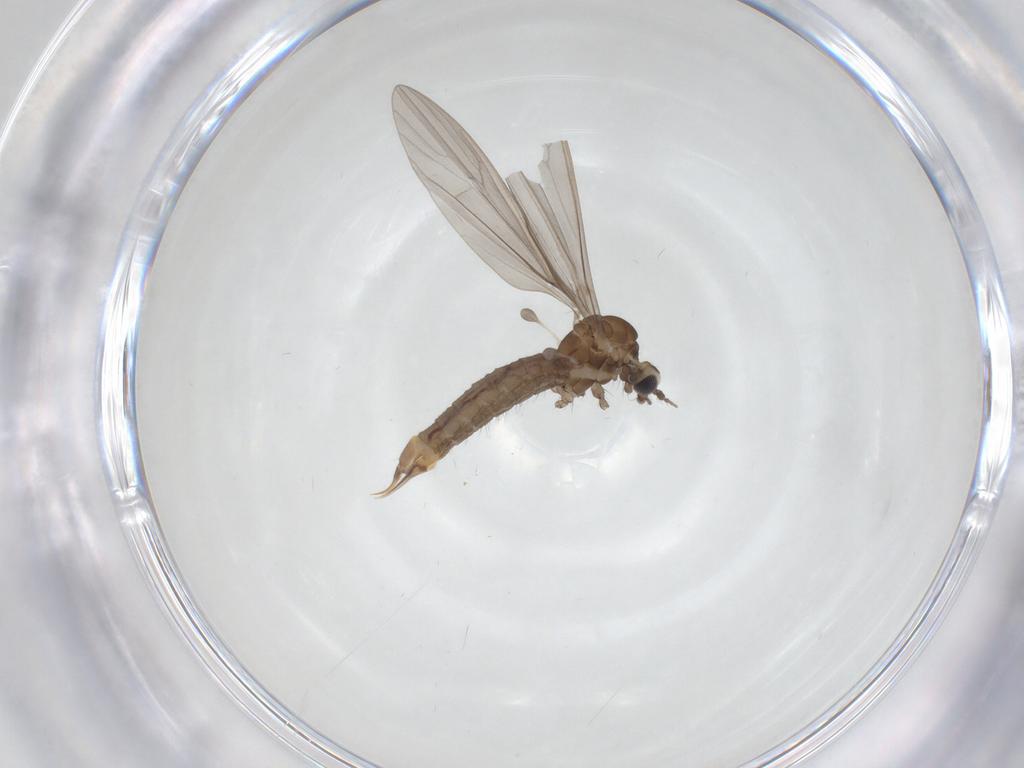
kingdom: Animalia
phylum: Arthropoda
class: Insecta
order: Diptera
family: Limoniidae
